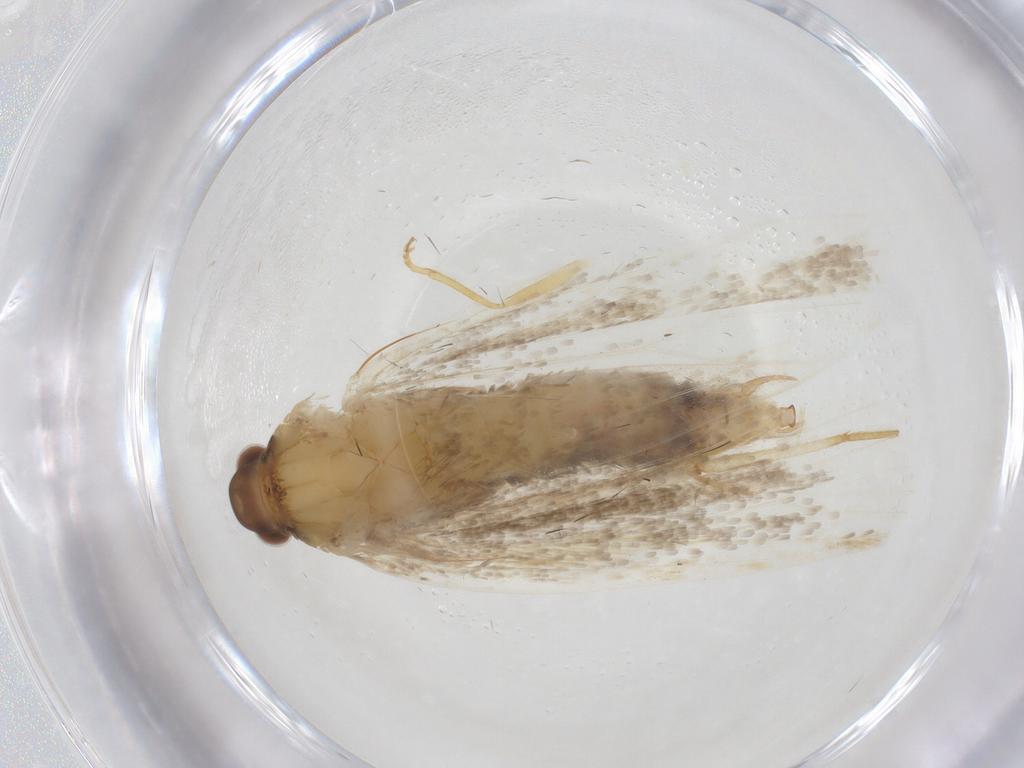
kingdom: Animalia
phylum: Arthropoda
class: Insecta
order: Lepidoptera
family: Lecithoceridae
